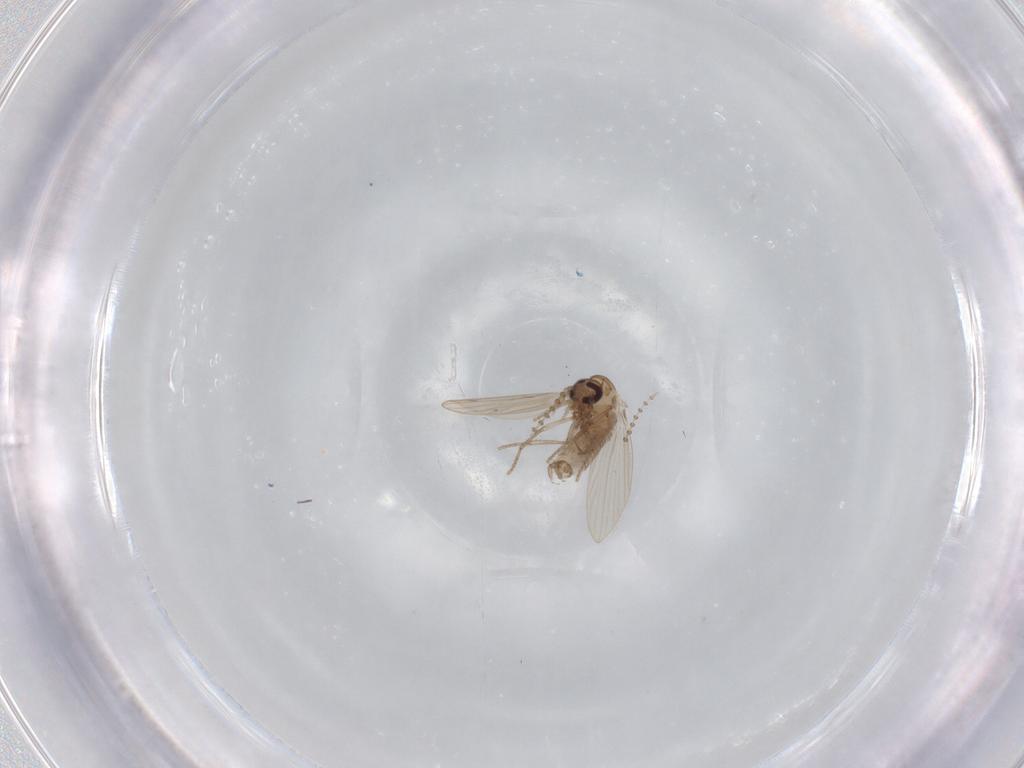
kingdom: Animalia
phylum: Arthropoda
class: Insecta
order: Diptera
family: Psychodidae
